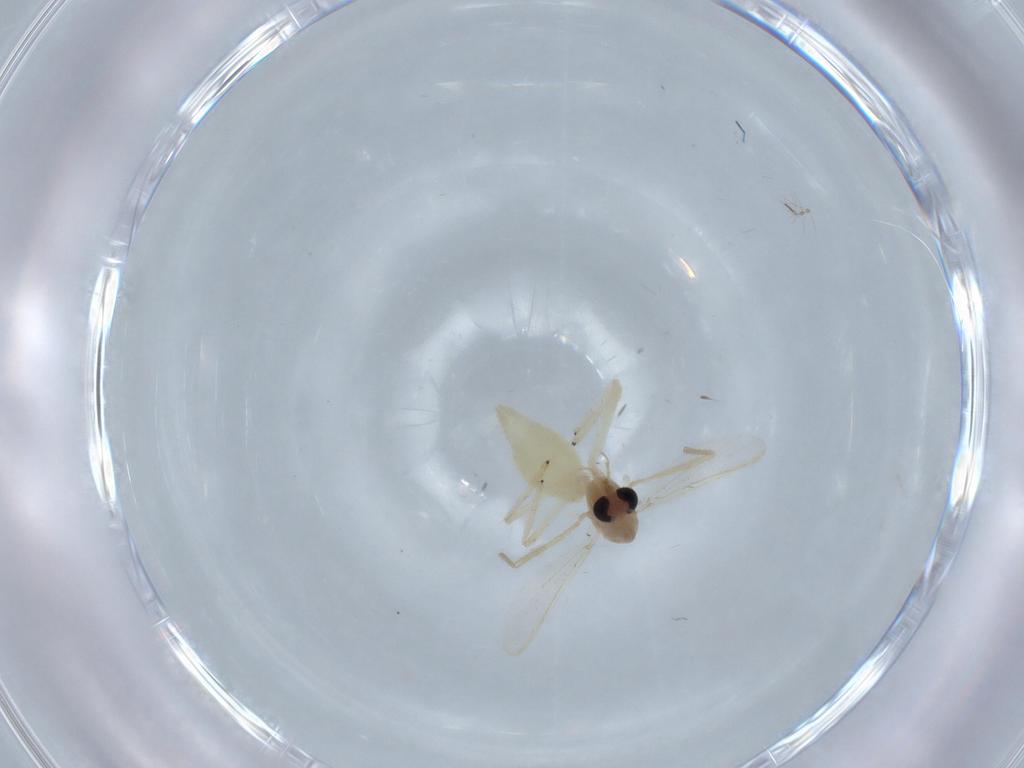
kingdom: Animalia
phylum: Arthropoda
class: Insecta
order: Diptera
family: Chironomidae
